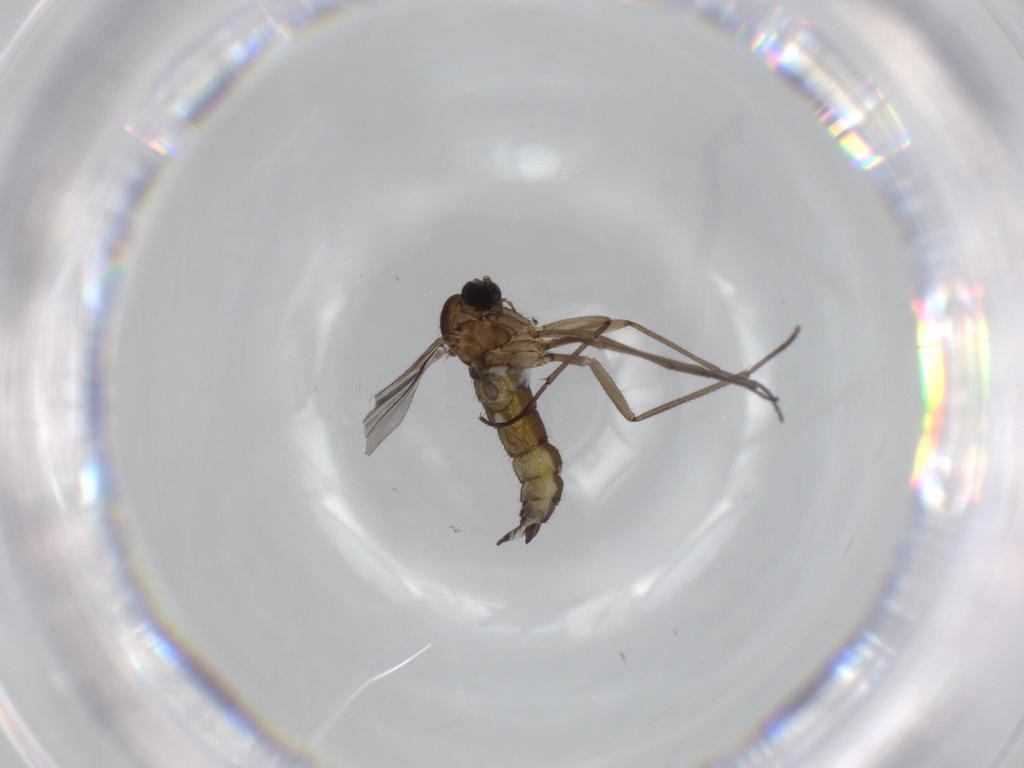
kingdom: Animalia
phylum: Arthropoda
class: Insecta
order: Diptera
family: Sciaridae
